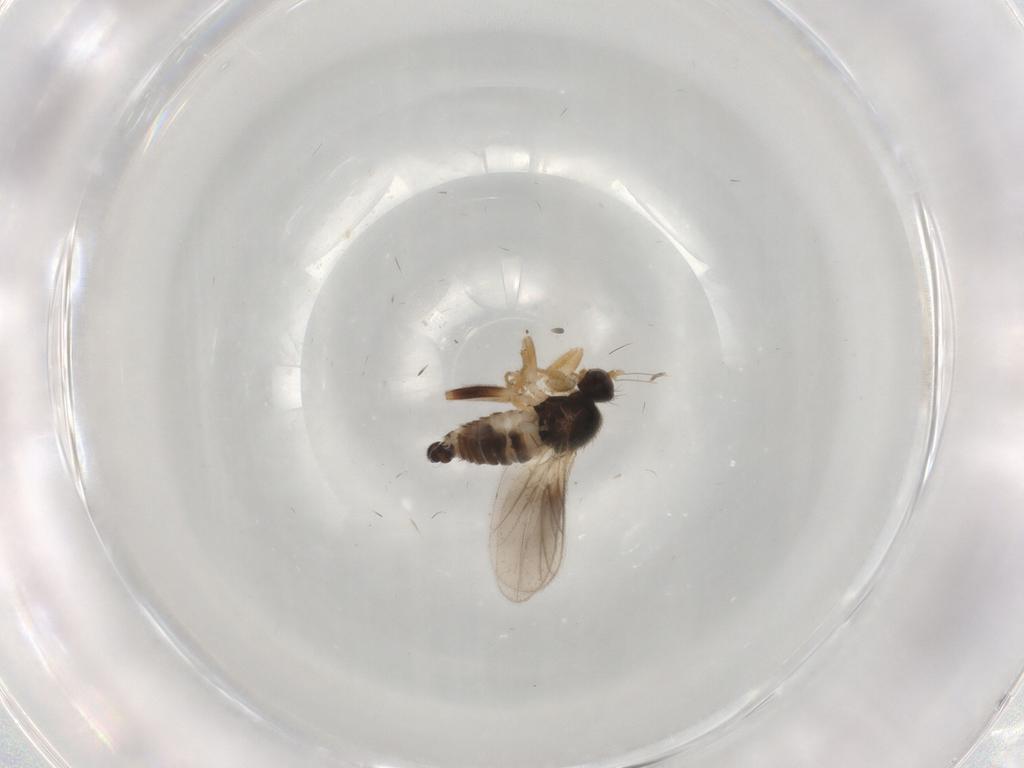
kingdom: Animalia
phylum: Arthropoda
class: Insecta
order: Diptera
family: Hybotidae
